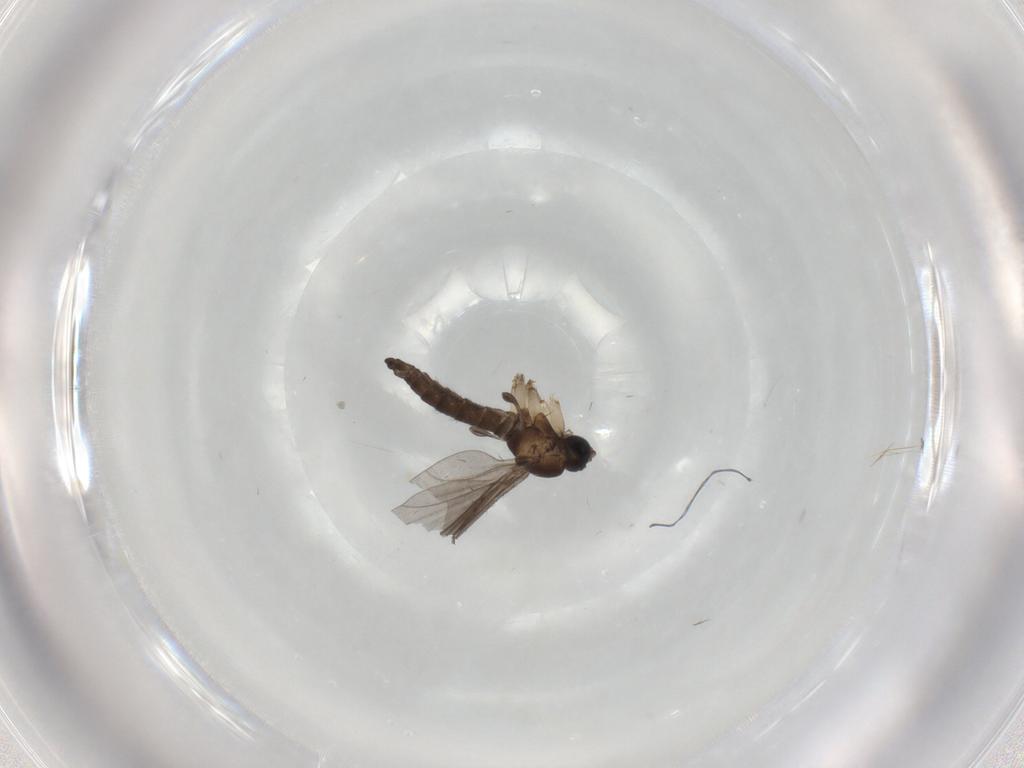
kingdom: Animalia
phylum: Arthropoda
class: Insecta
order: Diptera
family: Sciaridae
